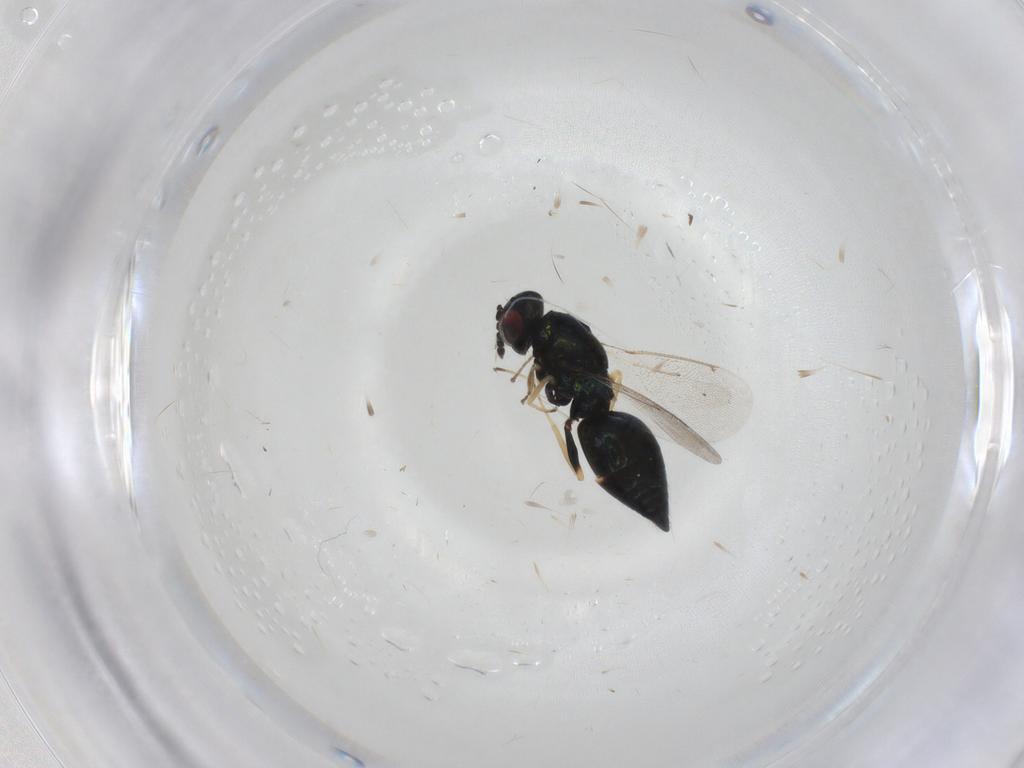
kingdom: Animalia
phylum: Arthropoda
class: Insecta
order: Hymenoptera
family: Eulophidae
